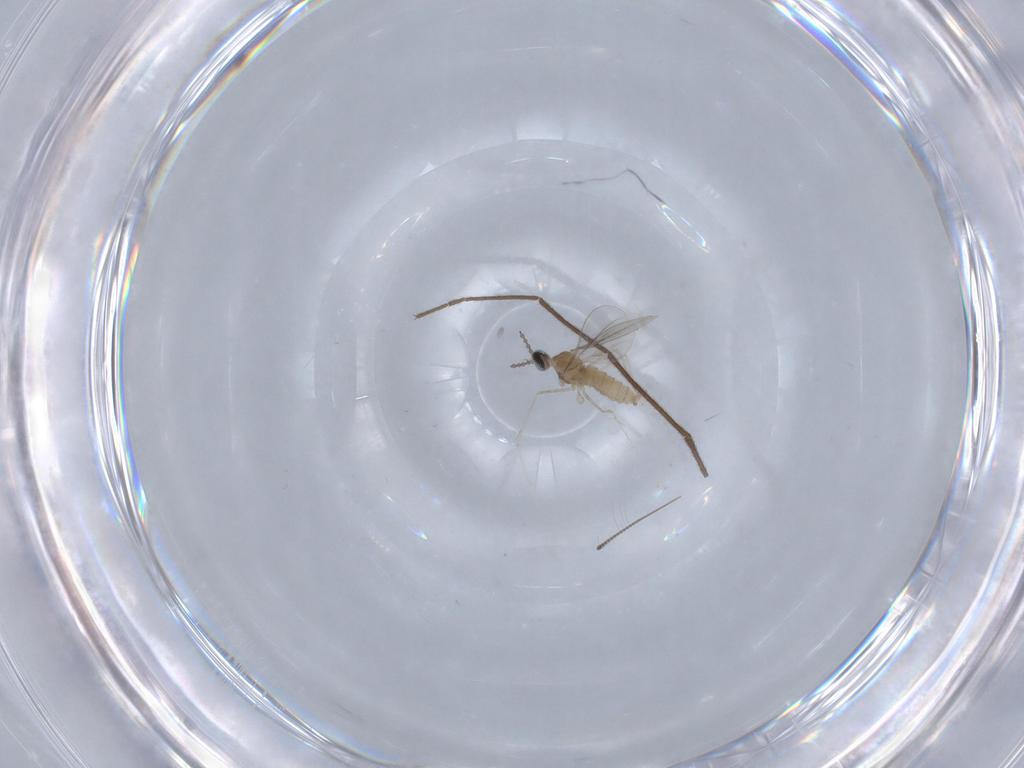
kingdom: Animalia
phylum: Arthropoda
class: Insecta
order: Diptera
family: Chironomidae
